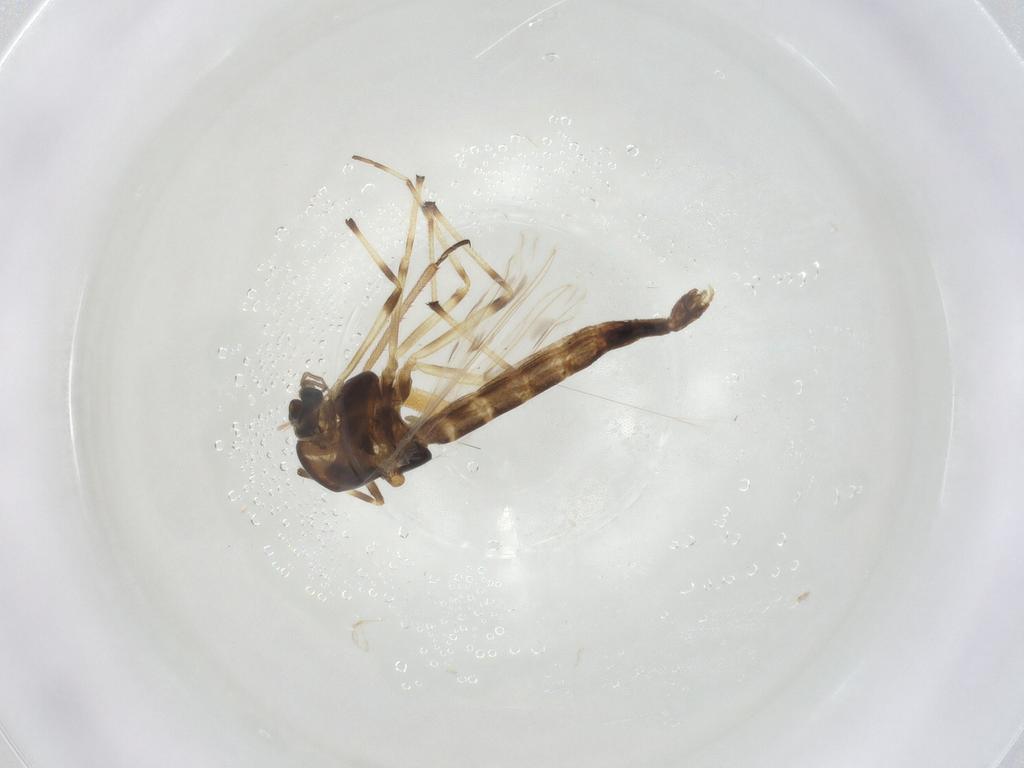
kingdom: Animalia
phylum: Arthropoda
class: Insecta
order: Diptera
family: Chironomidae
